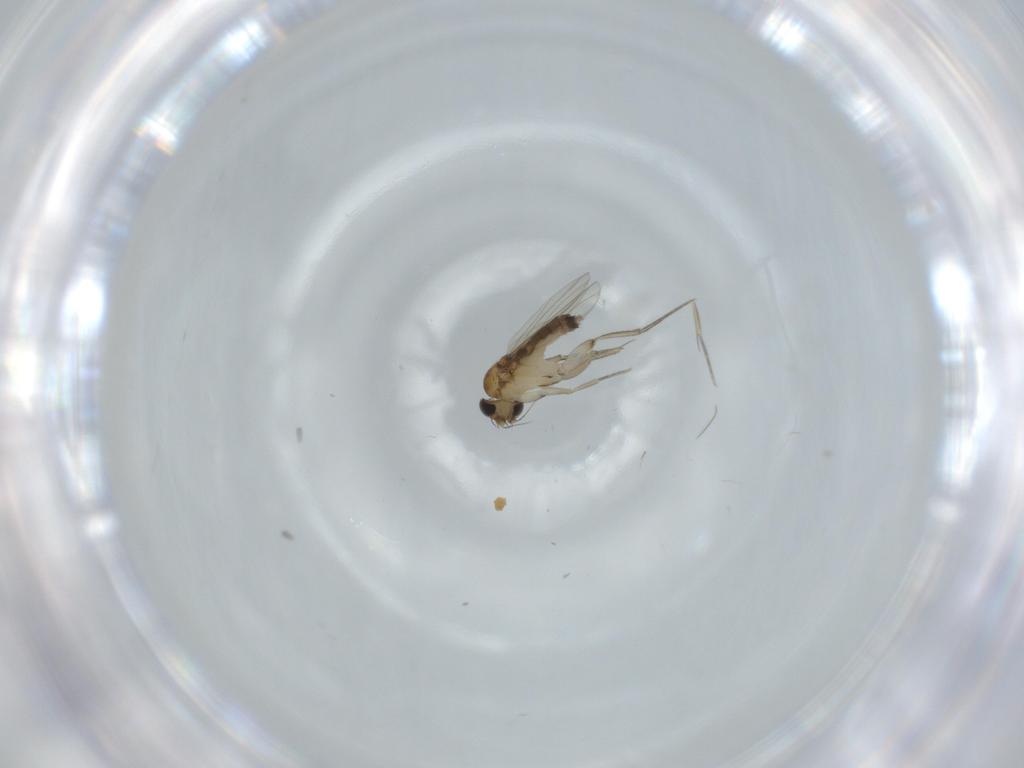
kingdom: Animalia
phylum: Arthropoda
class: Insecta
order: Diptera
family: Phoridae
